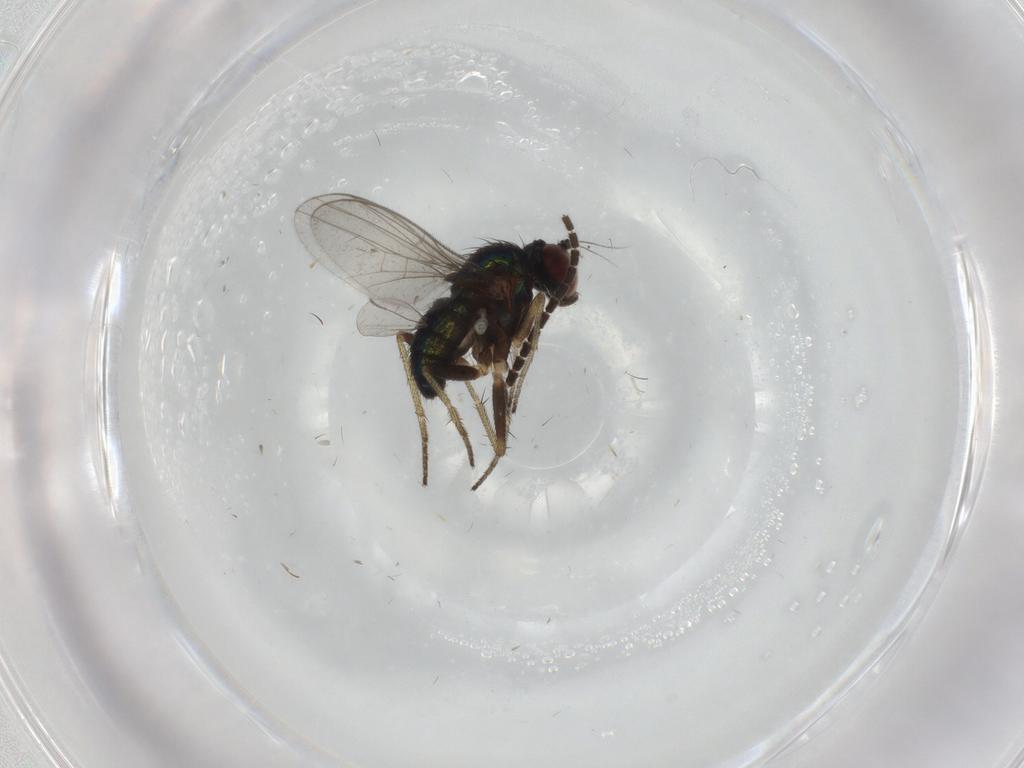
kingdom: Animalia
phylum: Arthropoda
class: Insecta
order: Diptera
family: Sciaridae
